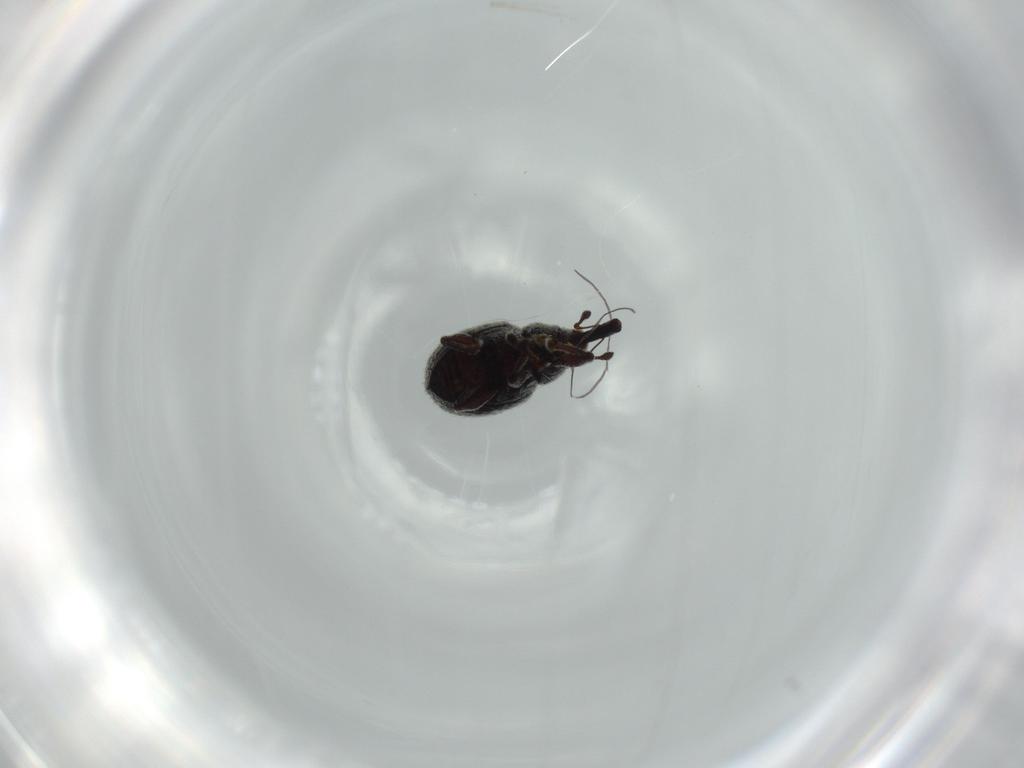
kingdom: Animalia
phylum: Arthropoda
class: Insecta
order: Coleoptera
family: Curculionidae
